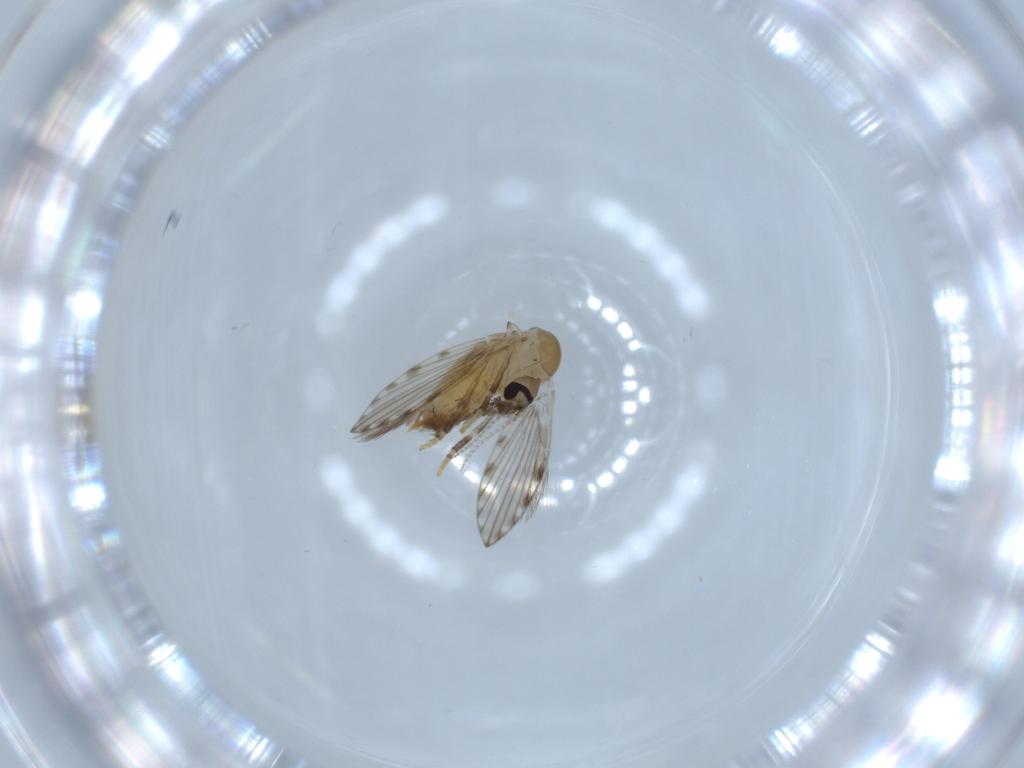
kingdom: Animalia
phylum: Arthropoda
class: Insecta
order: Diptera
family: Psychodidae
